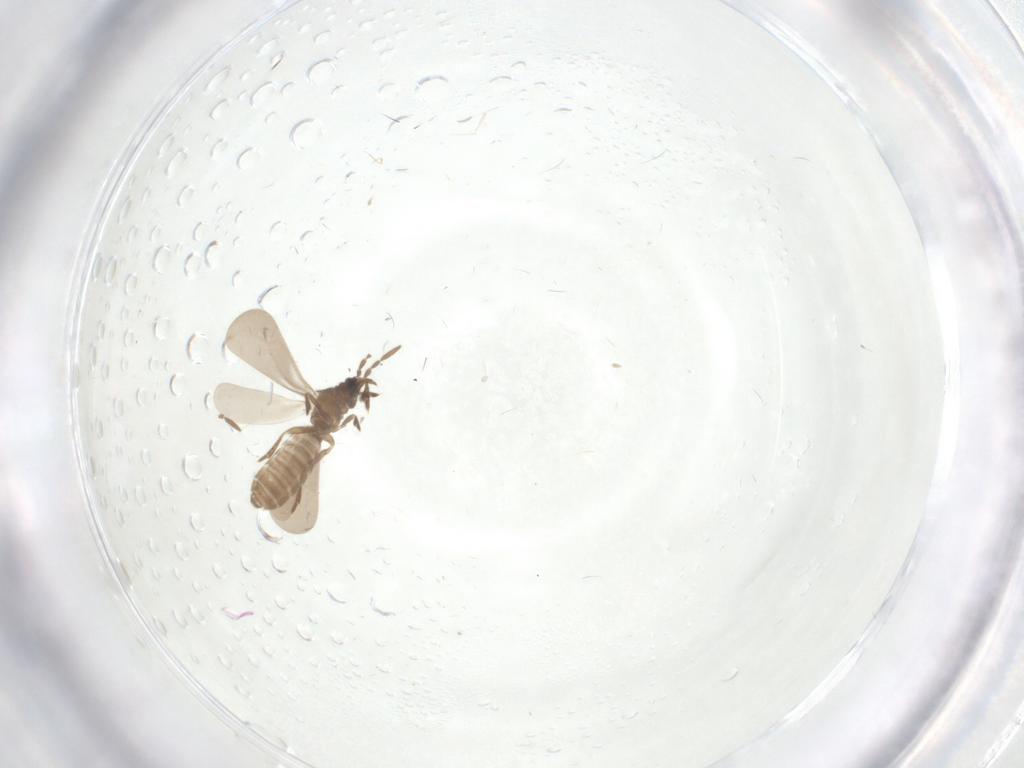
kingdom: Animalia
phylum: Arthropoda
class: Insecta
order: Hemiptera
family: Enicocephalidae
